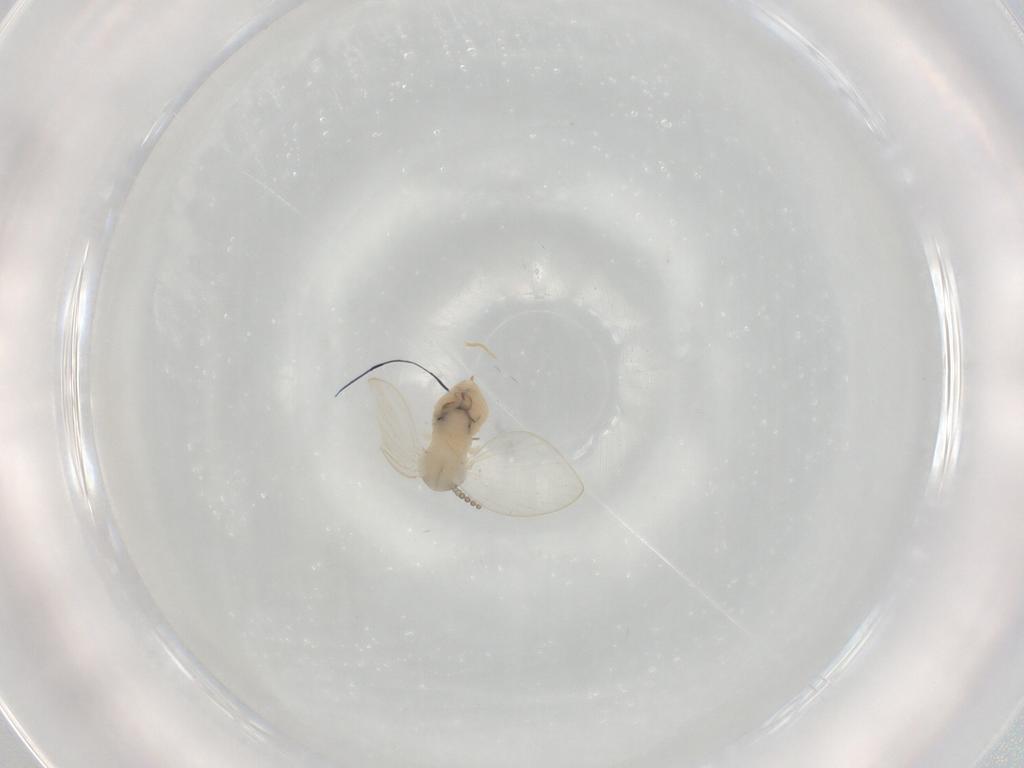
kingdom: Animalia
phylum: Arthropoda
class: Insecta
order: Diptera
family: Psychodidae
